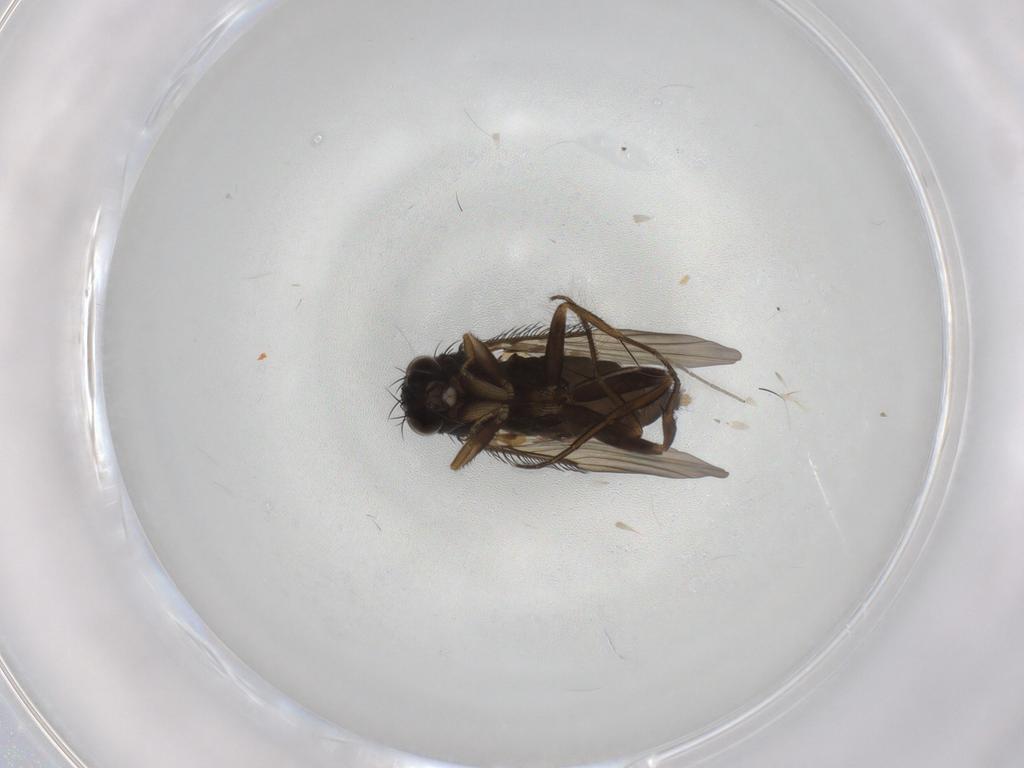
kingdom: Animalia
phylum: Arthropoda
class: Insecta
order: Diptera
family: Phoridae
